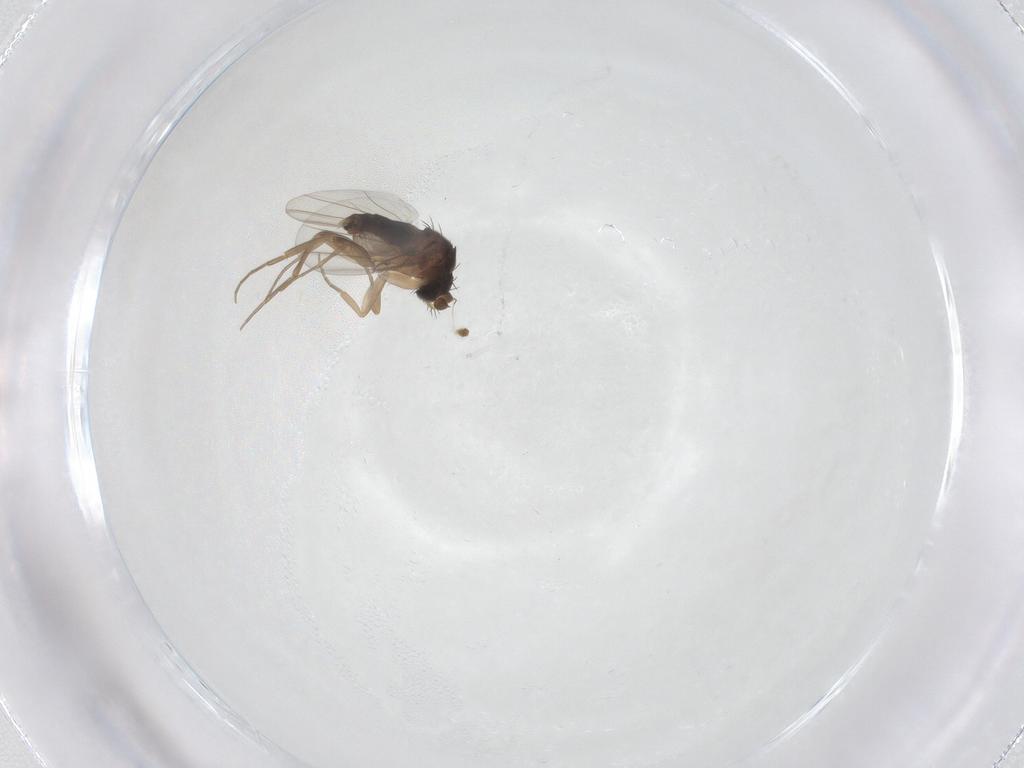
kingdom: Animalia
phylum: Arthropoda
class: Insecta
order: Diptera
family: Phoridae
